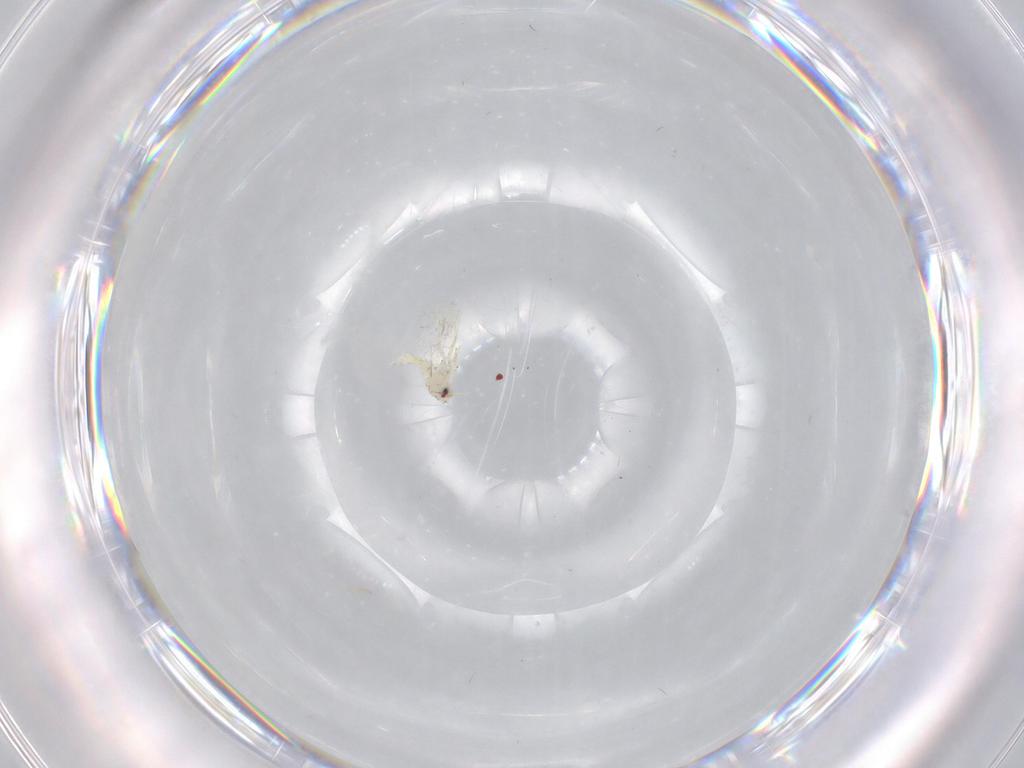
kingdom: Animalia
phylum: Arthropoda
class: Insecta
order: Hemiptera
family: Aleyrodidae
